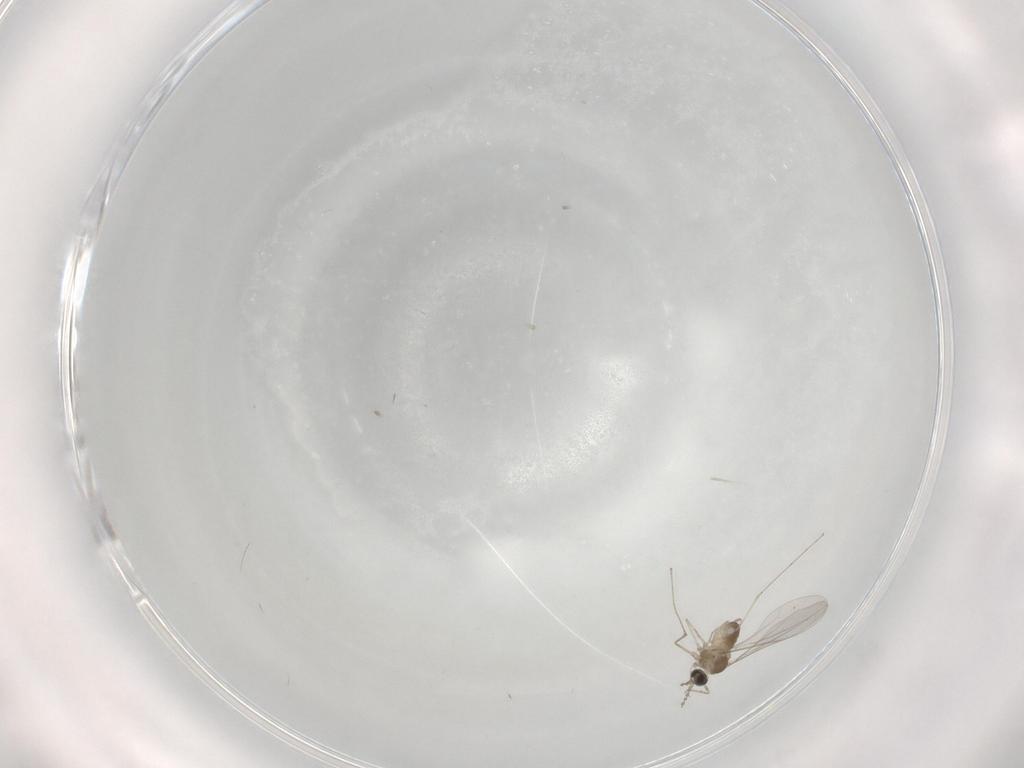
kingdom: Animalia
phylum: Arthropoda
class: Insecta
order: Diptera
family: Cecidomyiidae
